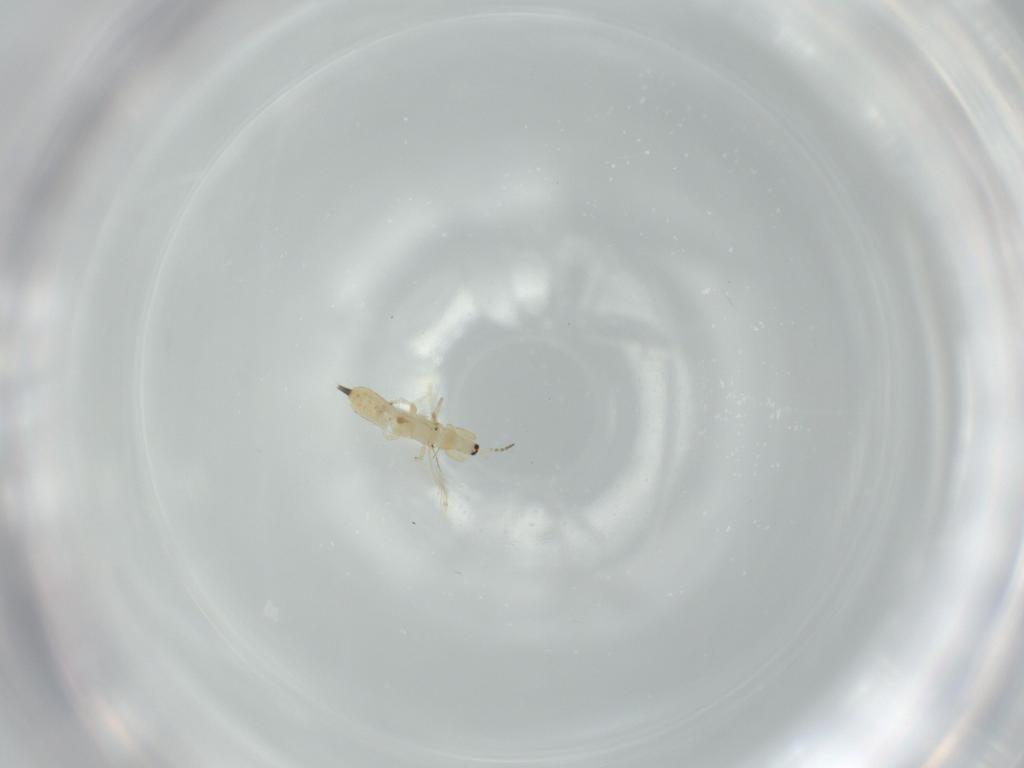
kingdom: Animalia
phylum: Arthropoda
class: Insecta
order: Thysanoptera
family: Phlaeothripidae
